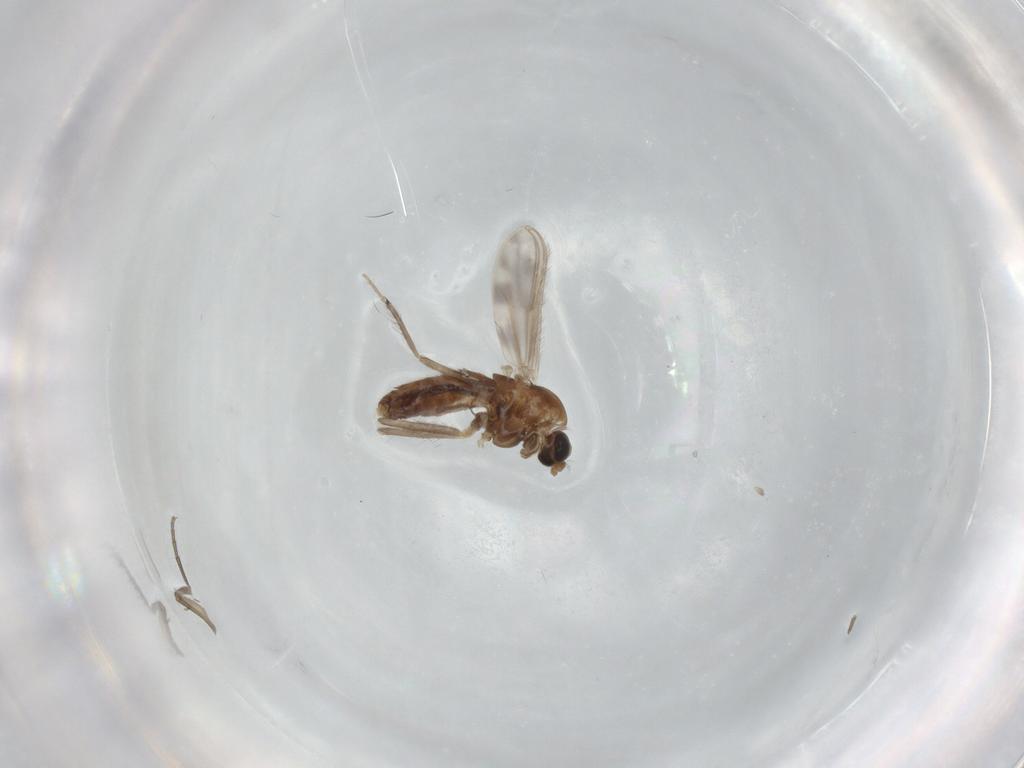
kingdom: Animalia
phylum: Arthropoda
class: Insecta
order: Diptera
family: Chironomidae
